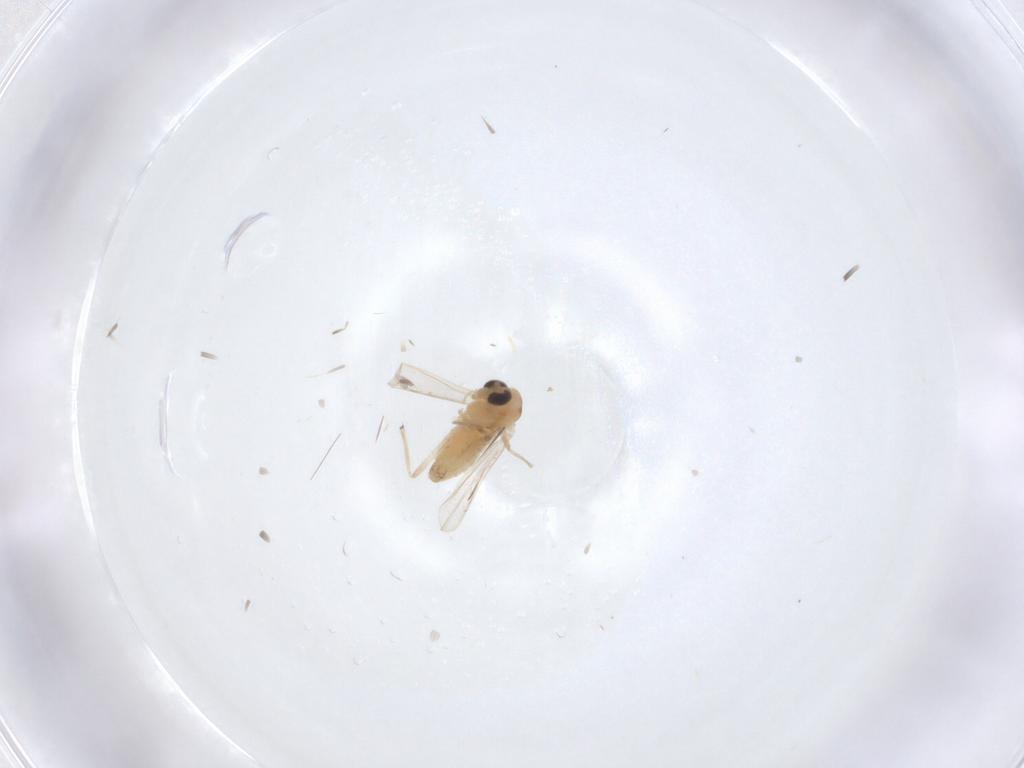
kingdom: Animalia
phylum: Arthropoda
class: Insecta
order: Diptera
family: Chironomidae
